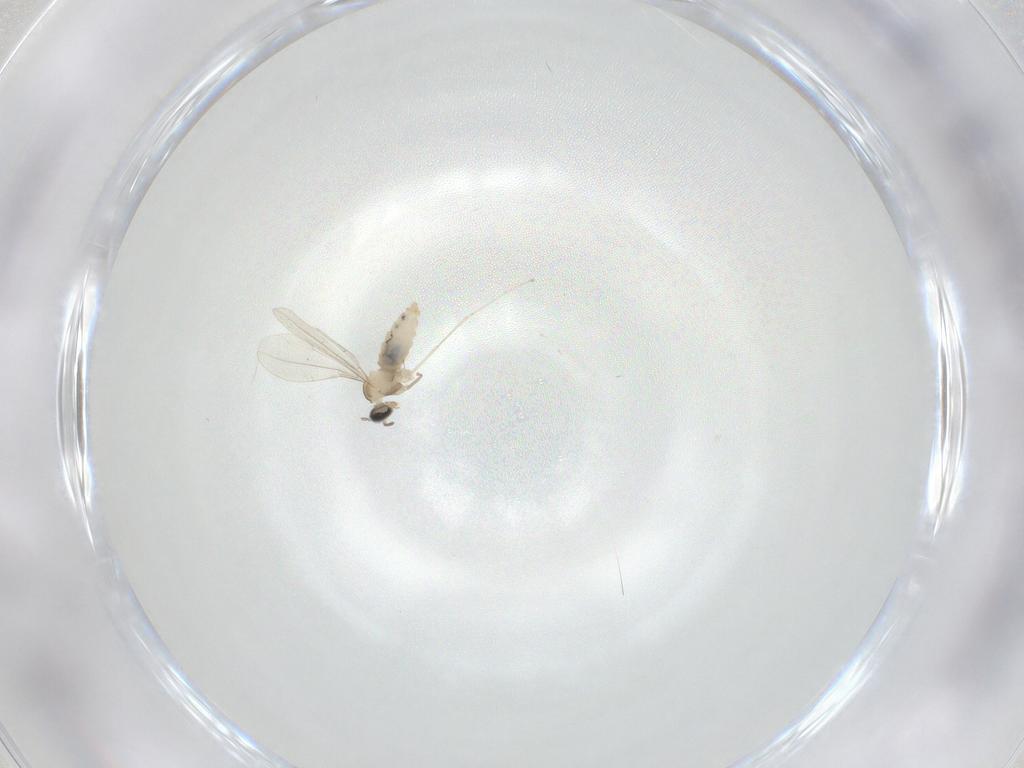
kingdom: Animalia
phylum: Arthropoda
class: Insecta
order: Diptera
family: Cecidomyiidae
